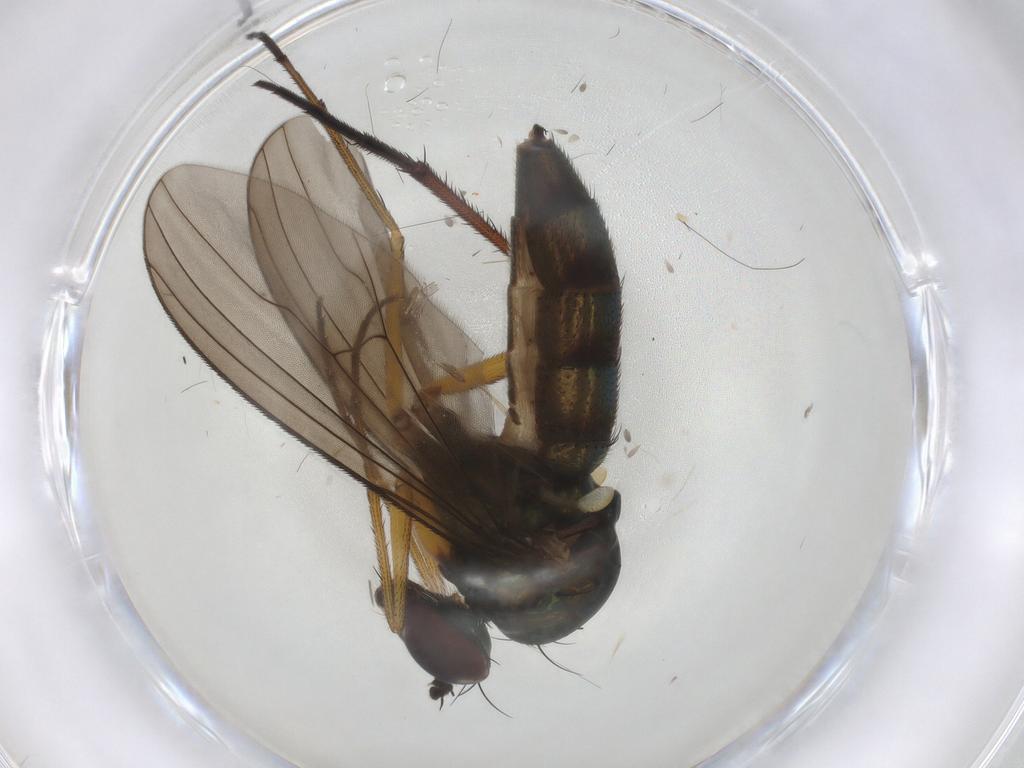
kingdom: Animalia
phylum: Arthropoda
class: Insecta
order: Diptera
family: Dolichopodidae
